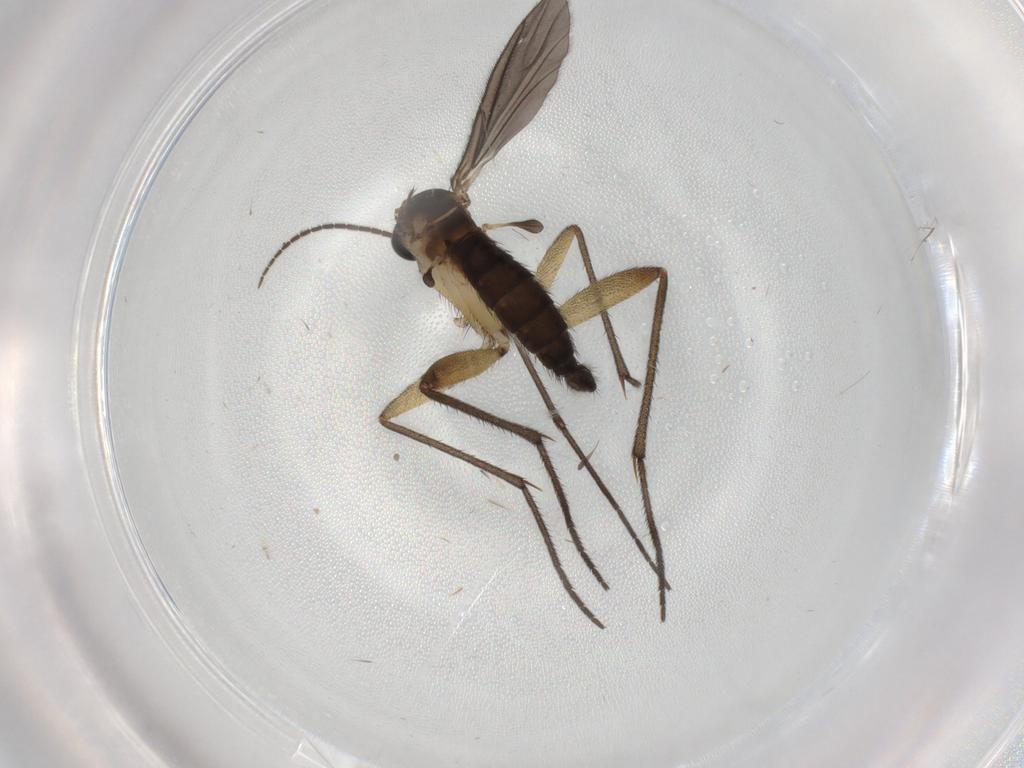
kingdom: Animalia
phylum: Arthropoda
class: Insecta
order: Diptera
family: Sciaridae
